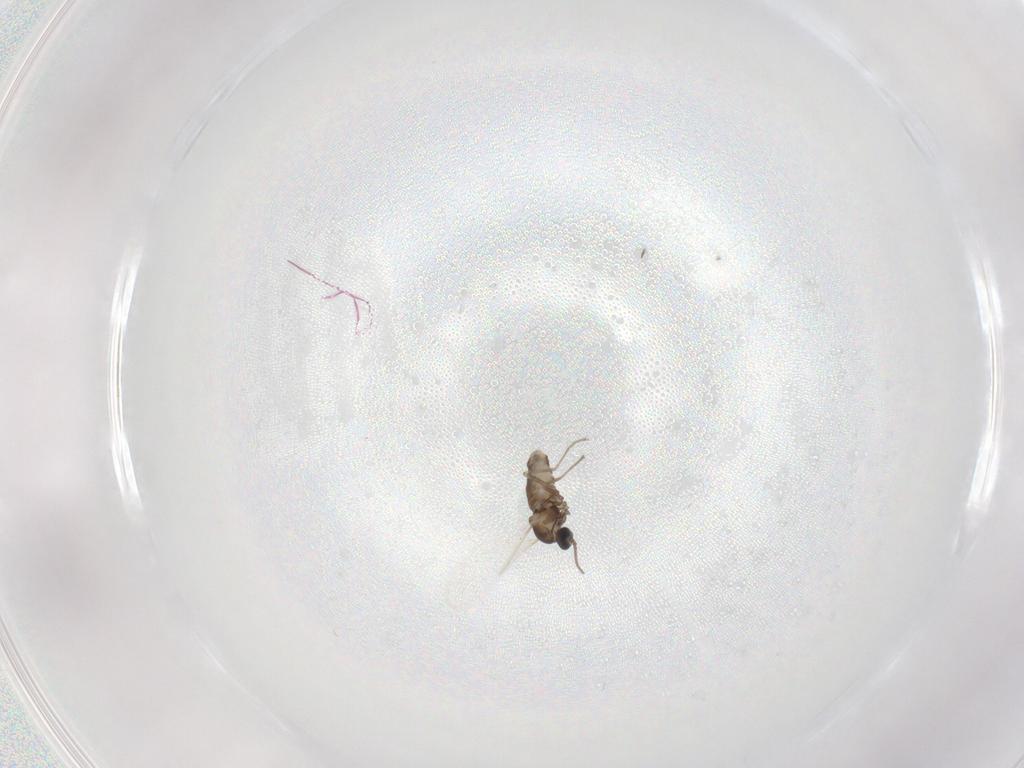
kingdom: Animalia
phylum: Arthropoda
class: Insecta
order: Diptera
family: Cecidomyiidae
